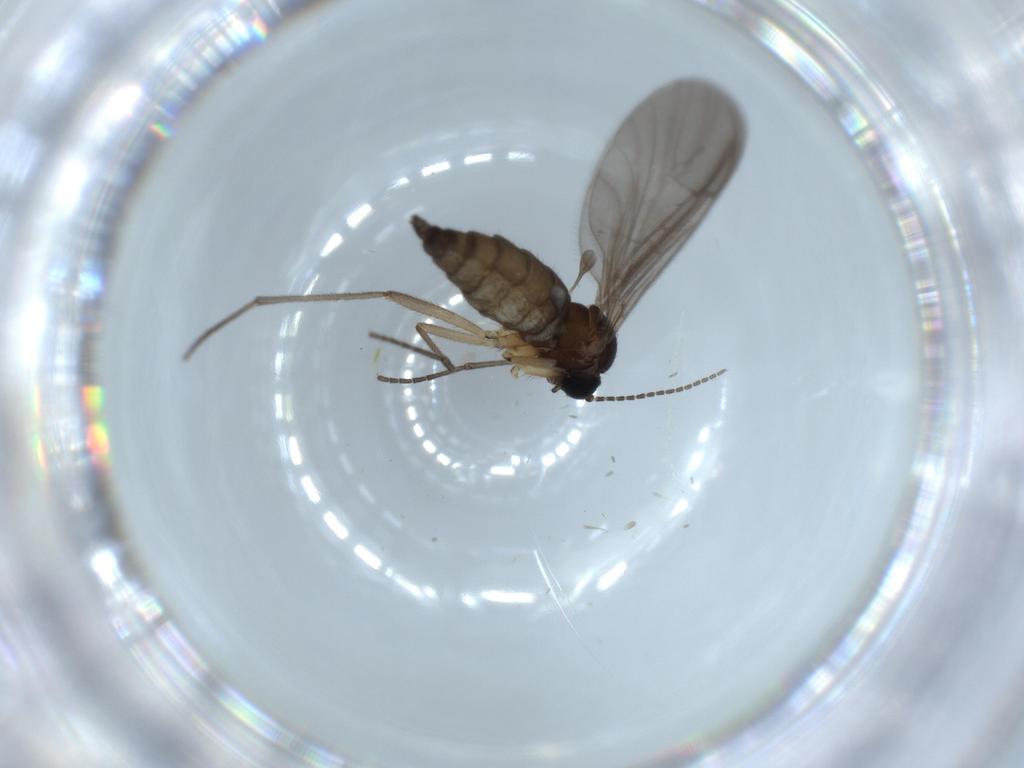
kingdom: Animalia
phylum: Arthropoda
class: Insecta
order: Diptera
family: Sciaridae
